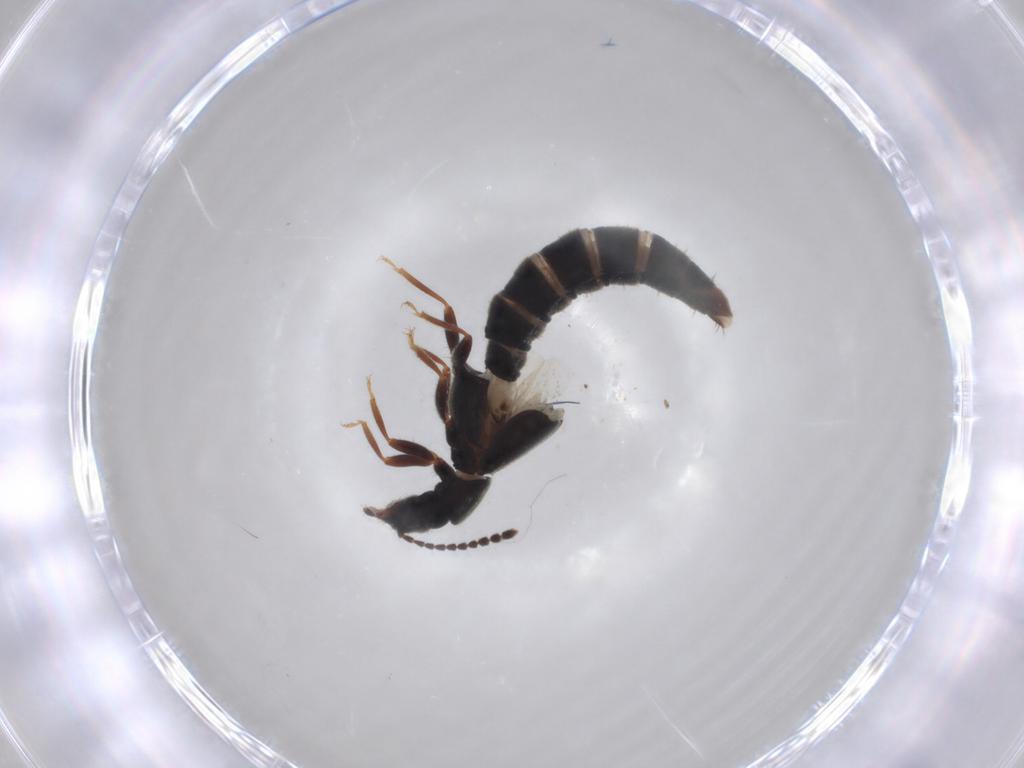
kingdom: Animalia
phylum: Arthropoda
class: Insecta
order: Coleoptera
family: Staphylinidae
